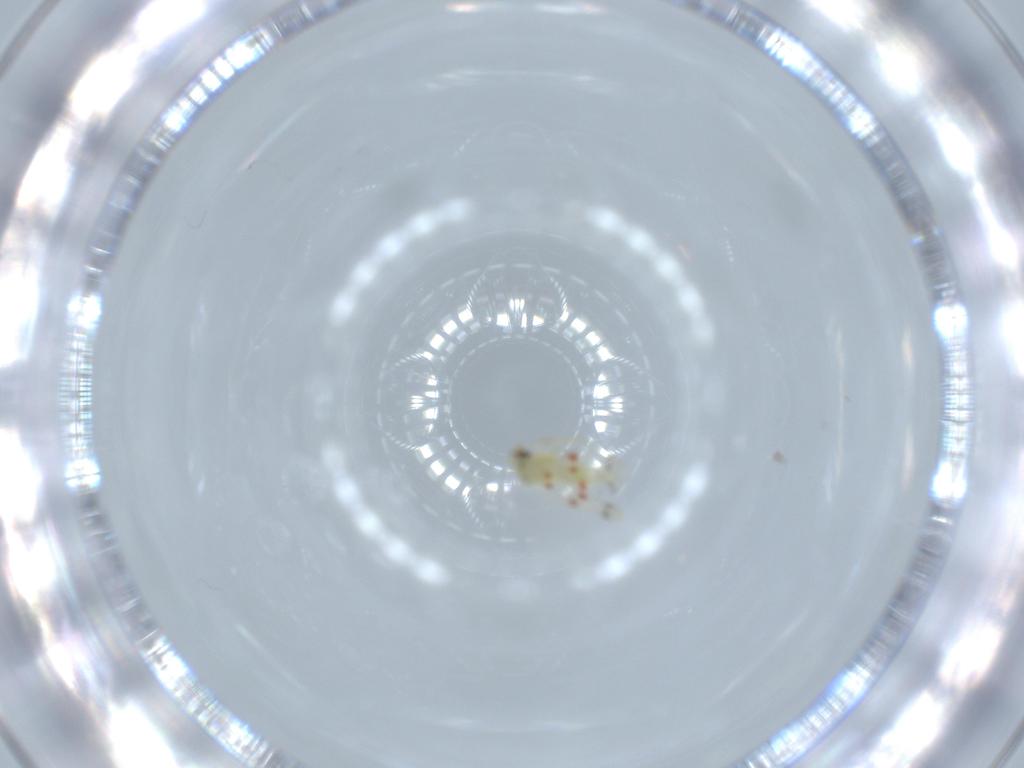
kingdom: Animalia
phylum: Arthropoda
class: Insecta
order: Hemiptera
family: Aleyrodidae
